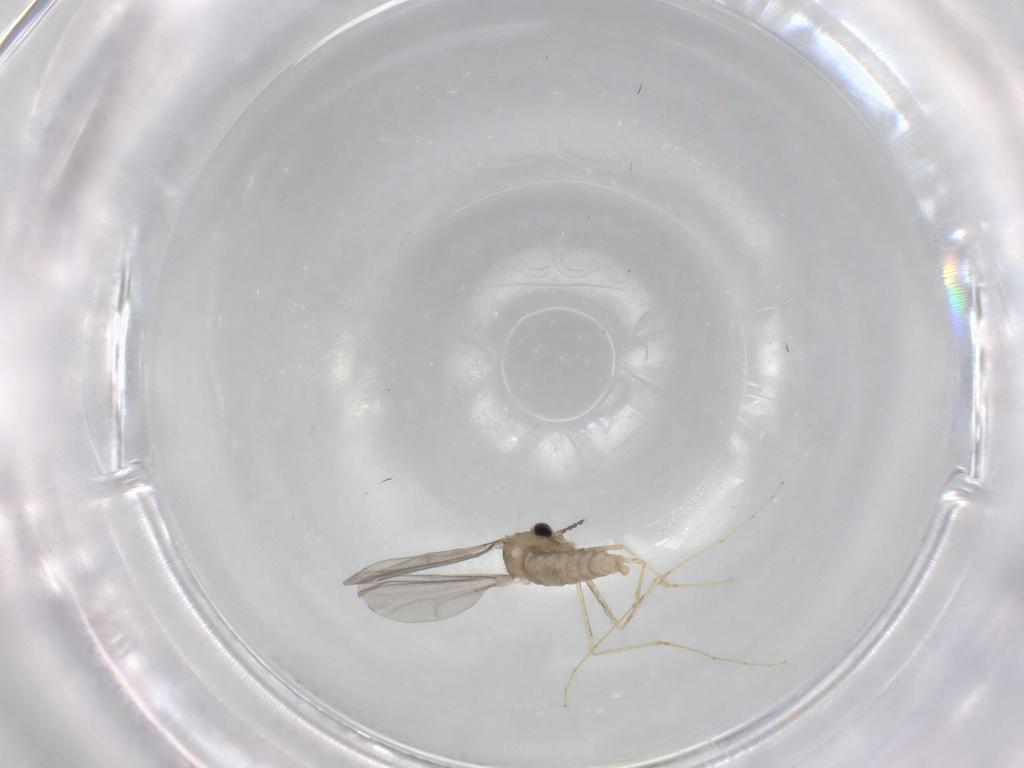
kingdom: Animalia
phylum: Arthropoda
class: Insecta
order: Diptera
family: Cecidomyiidae
